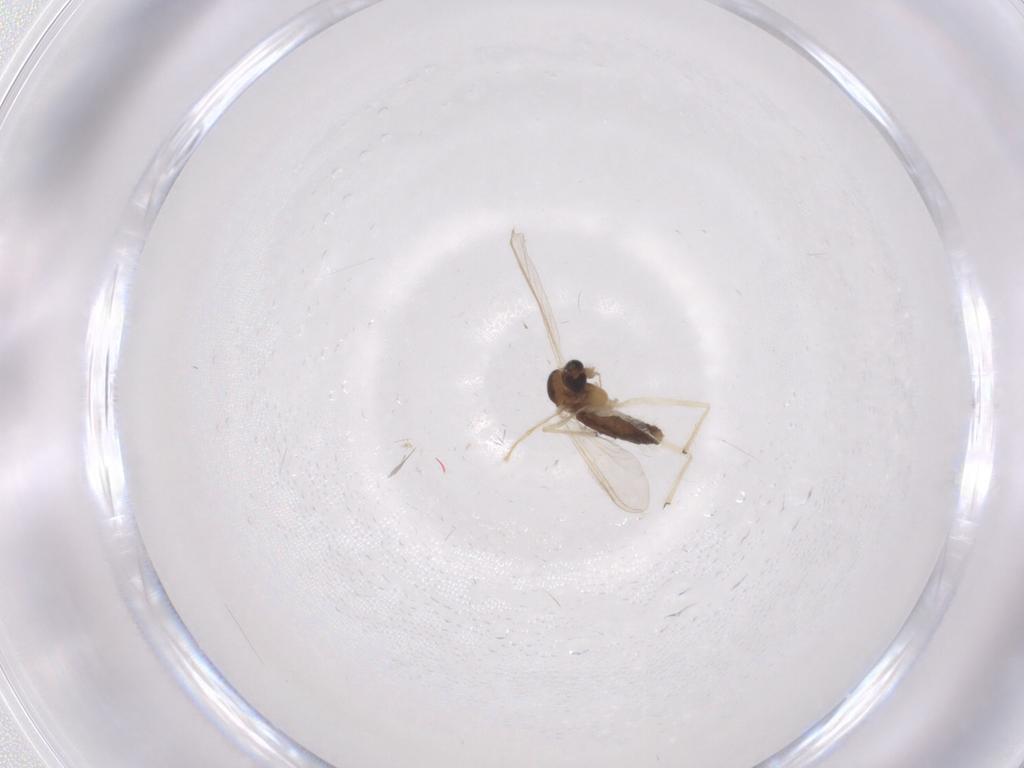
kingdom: Animalia
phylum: Arthropoda
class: Insecta
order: Diptera
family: Chironomidae
